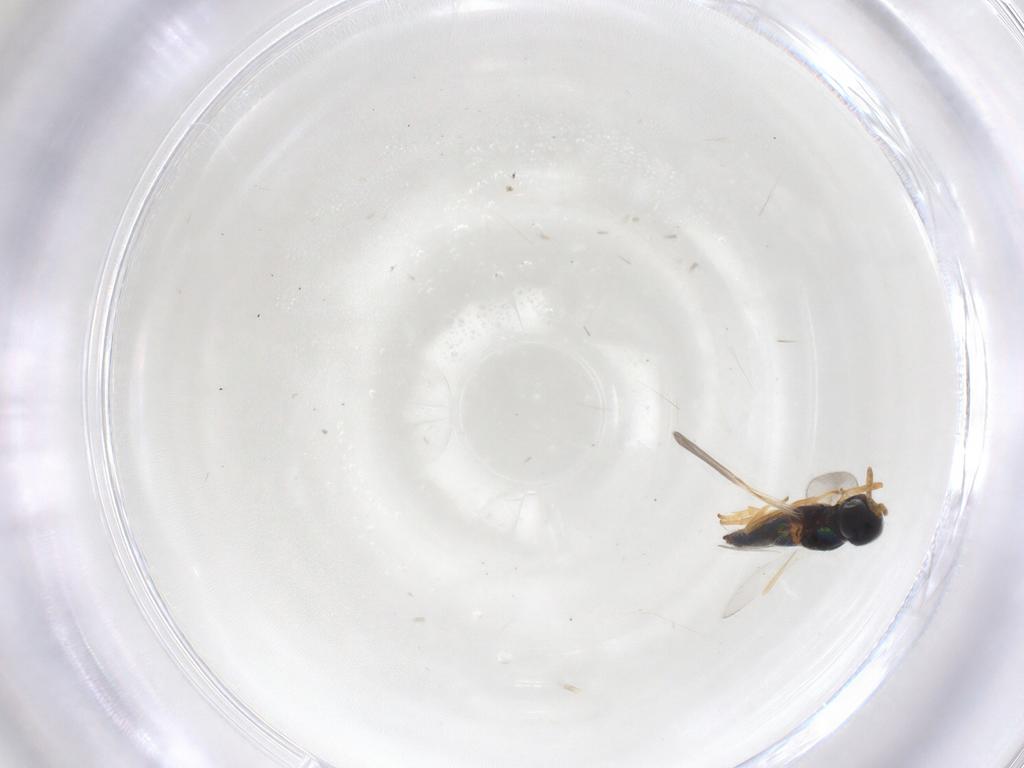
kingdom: Animalia
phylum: Arthropoda
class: Insecta
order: Hymenoptera
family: Encyrtidae
